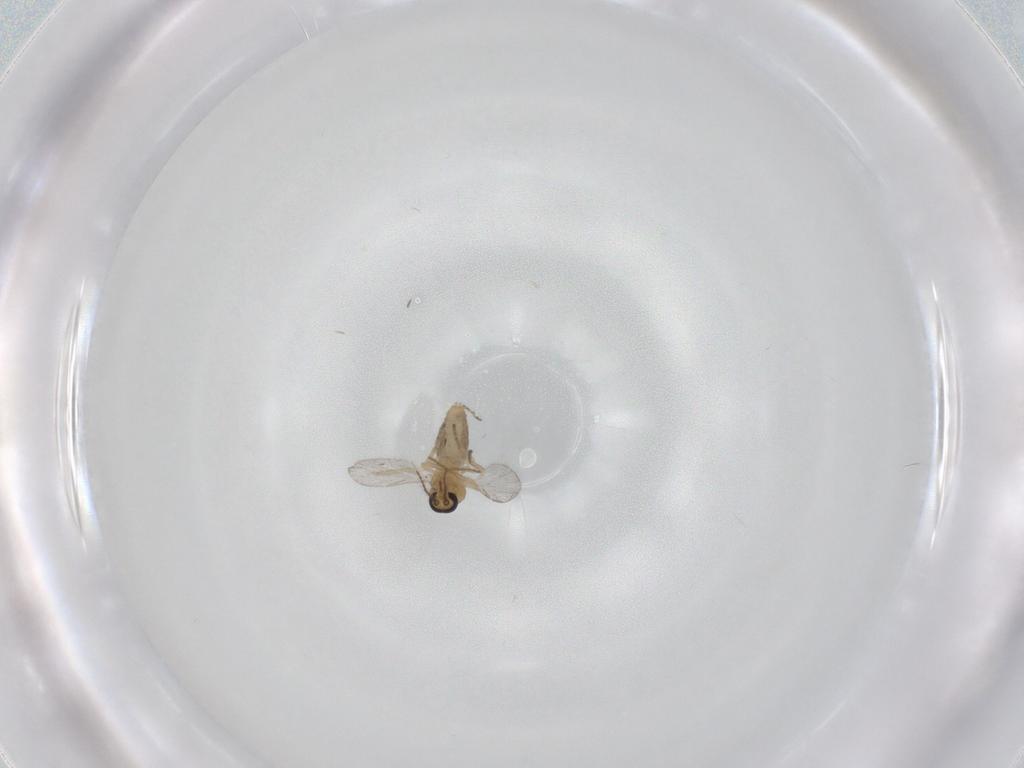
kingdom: Animalia
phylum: Arthropoda
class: Insecta
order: Diptera
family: Ceratopogonidae
